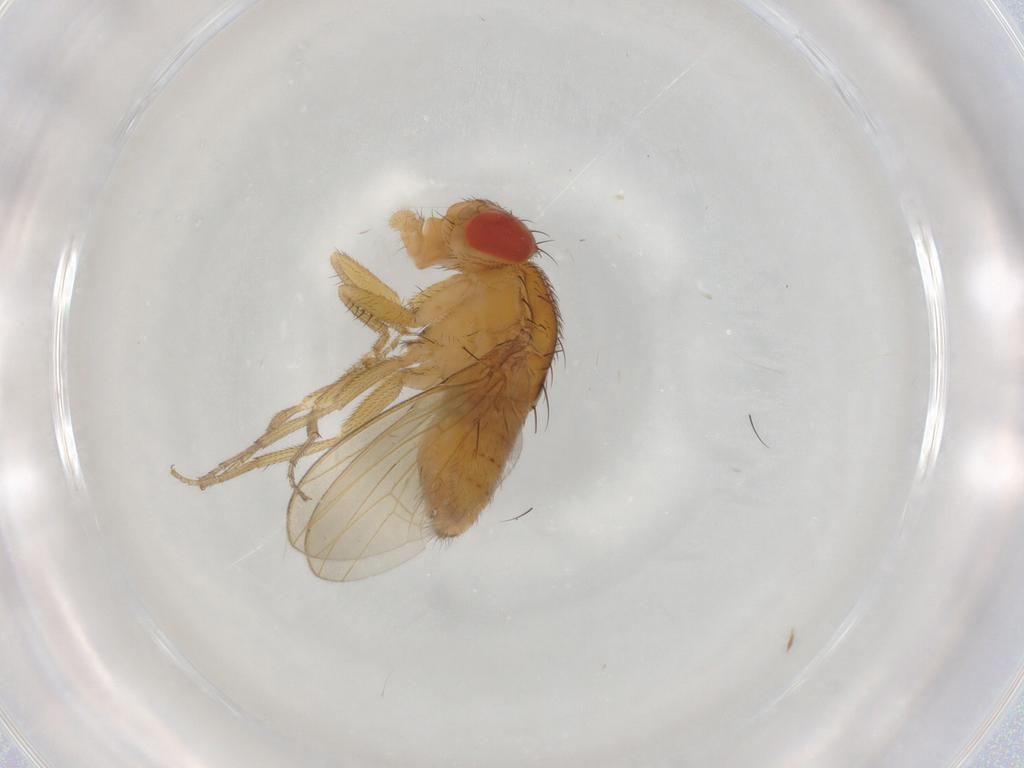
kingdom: Animalia
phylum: Arthropoda
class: Insecta
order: Diptera
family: Drosophilidae
